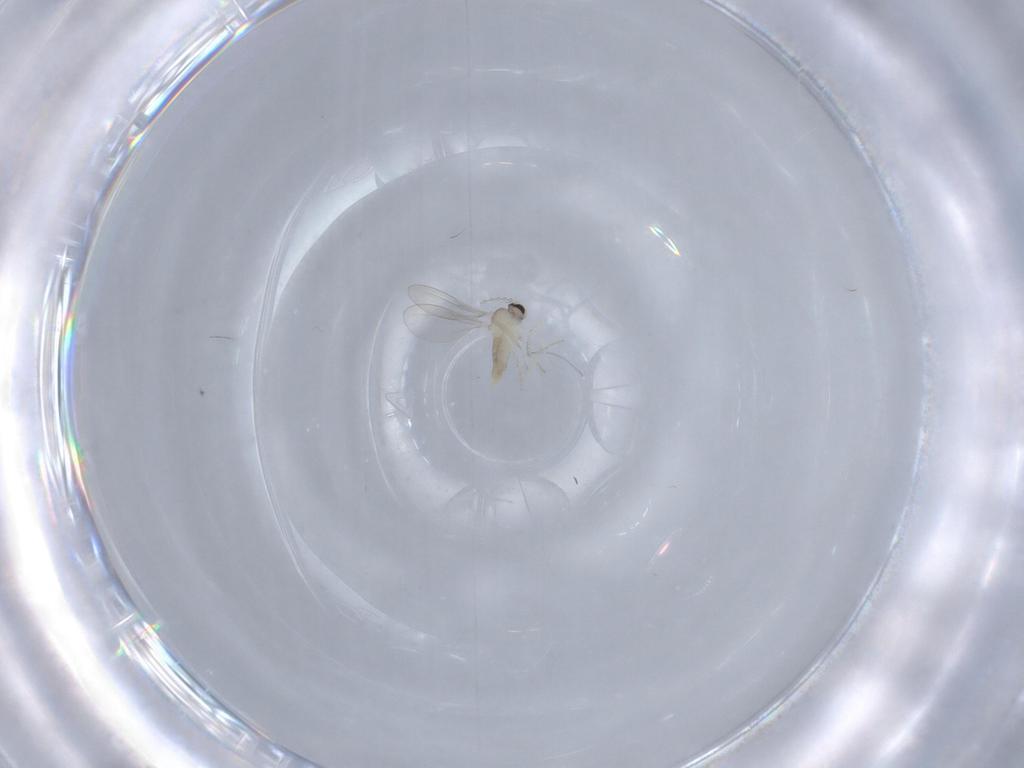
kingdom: Animalia
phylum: Arthropoda
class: Insecta
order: Diptera
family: Cecidomyiidae
